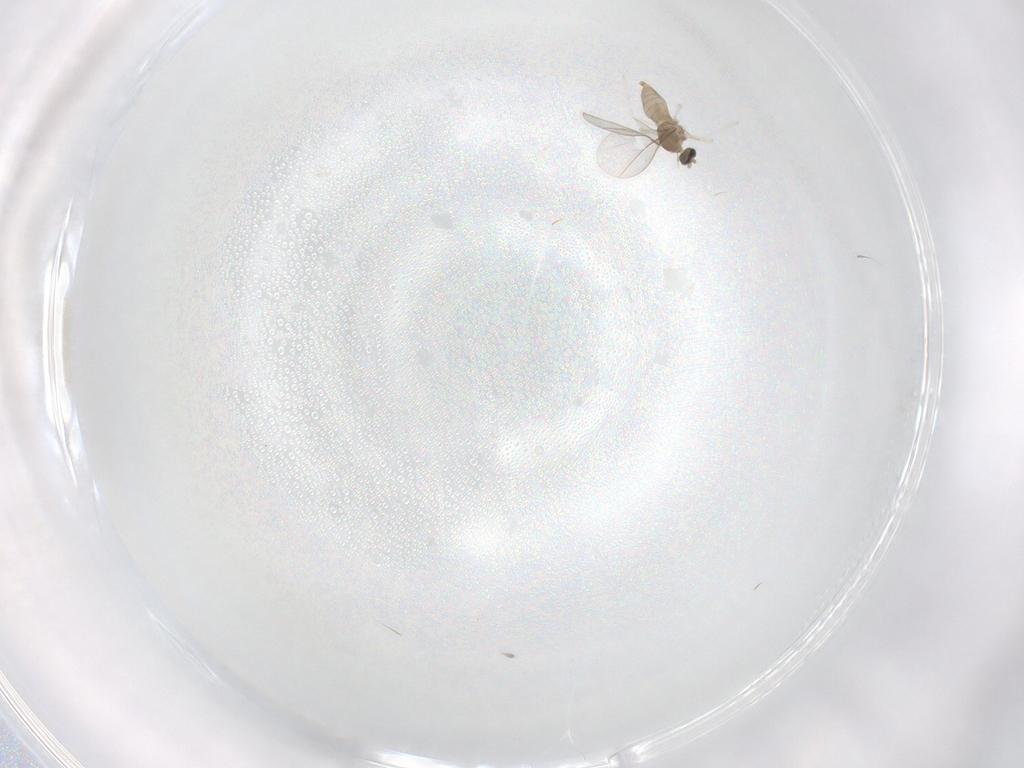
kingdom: Animalia
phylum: Arthropoda
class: Insecta
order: Diptera
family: Cecidomyiidae
